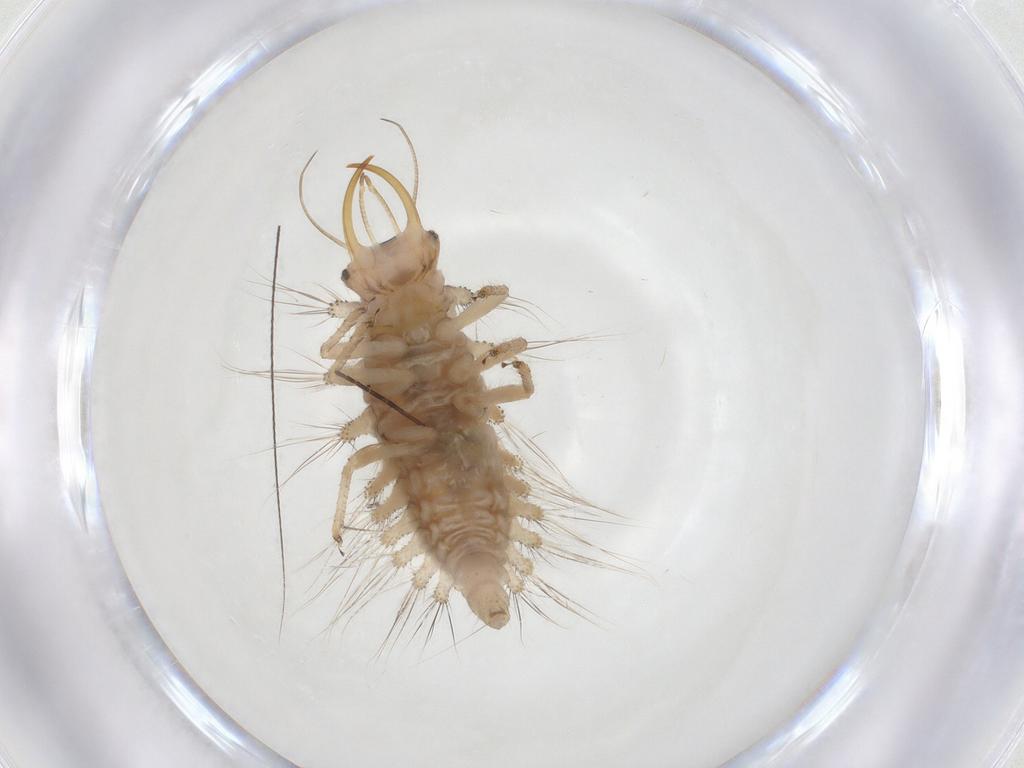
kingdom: Animalia
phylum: Arthropoda
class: Insecta
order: Neuroptera
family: Chrysopidae
